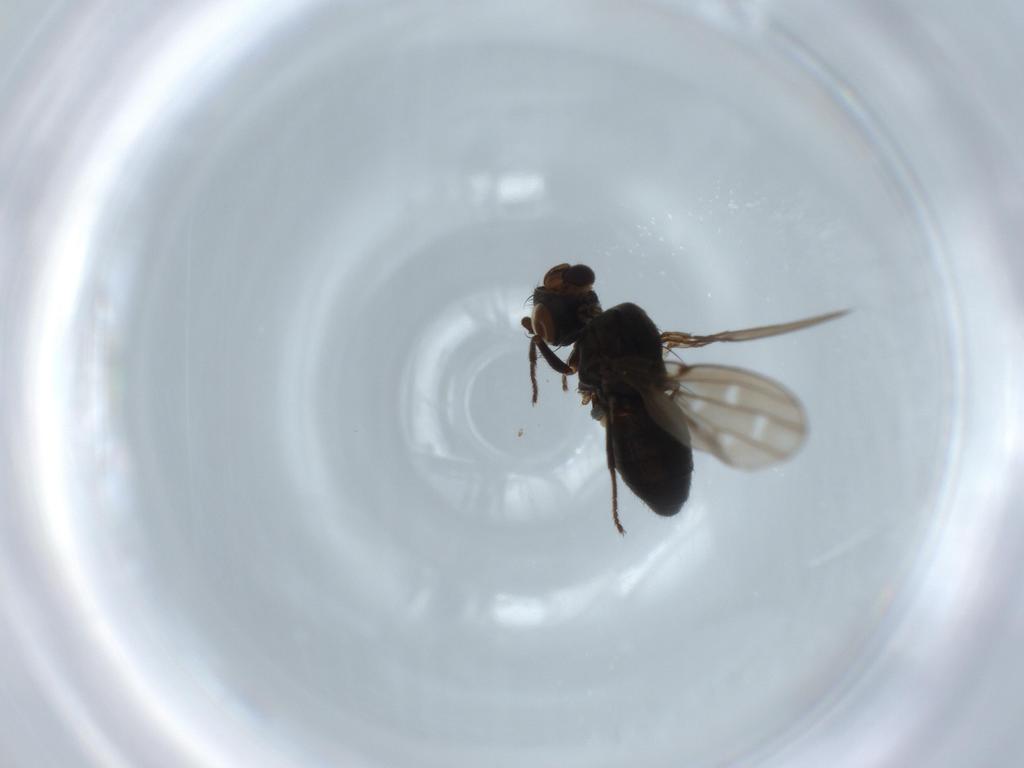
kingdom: Animalia
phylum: Arthropoda
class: Insecta
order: Diptera
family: Ephydridae
